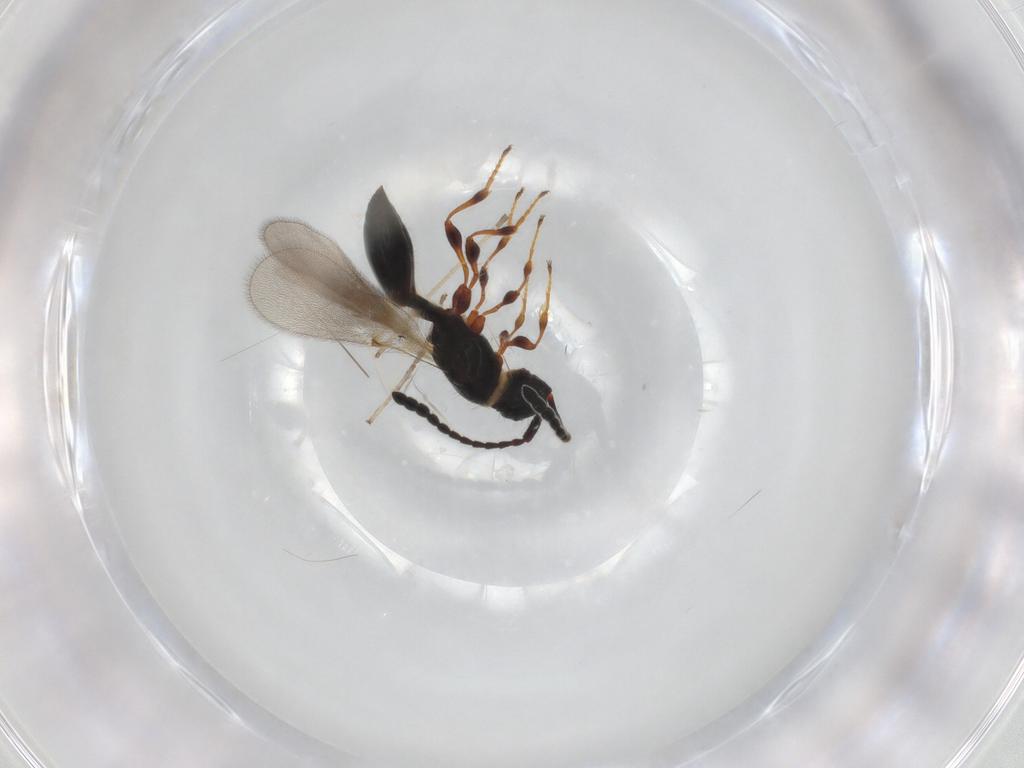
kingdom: Animalia
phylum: Arthropoda
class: Insecta
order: Hymenoptera
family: Diapriidae
